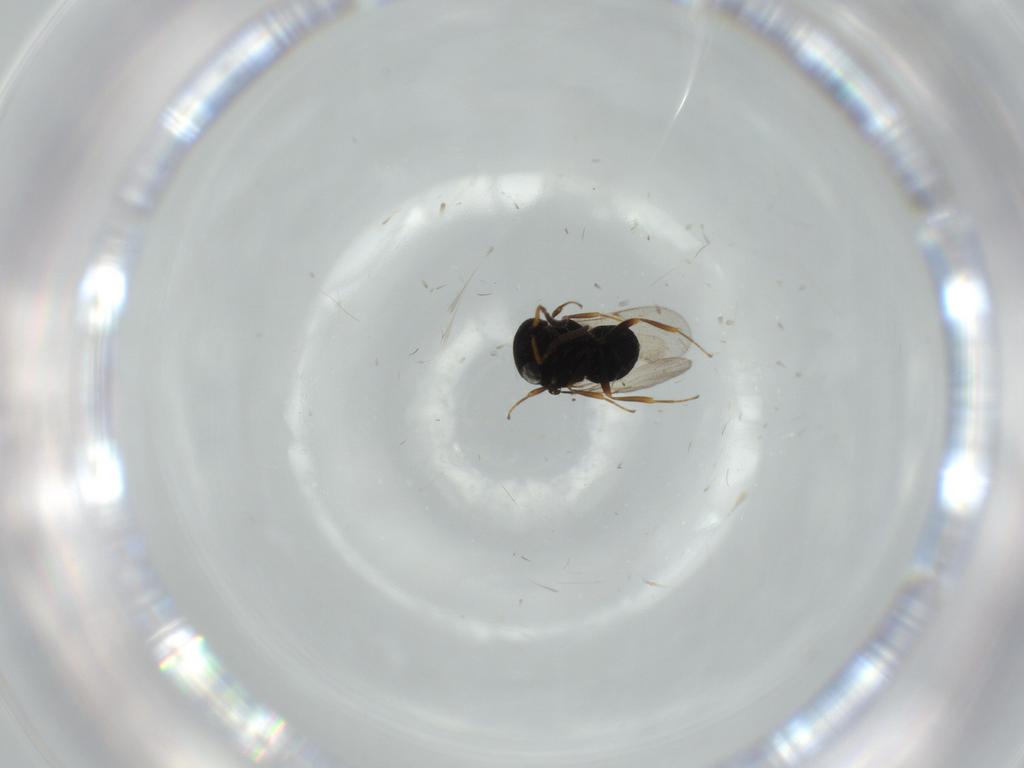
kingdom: Animalia
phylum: Arthropoda
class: Insecta
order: Hymenoptera
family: Scelionidae
